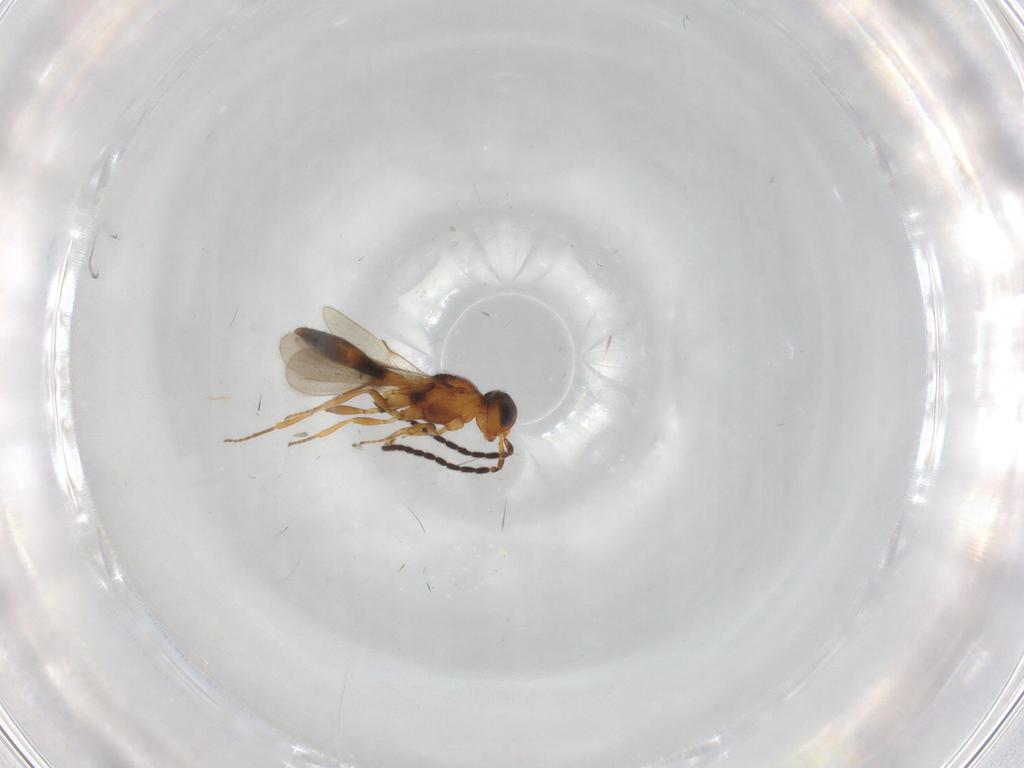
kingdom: Animalia
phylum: Arthropoda
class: Insecta
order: Hymenoptera
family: Scelionidae
